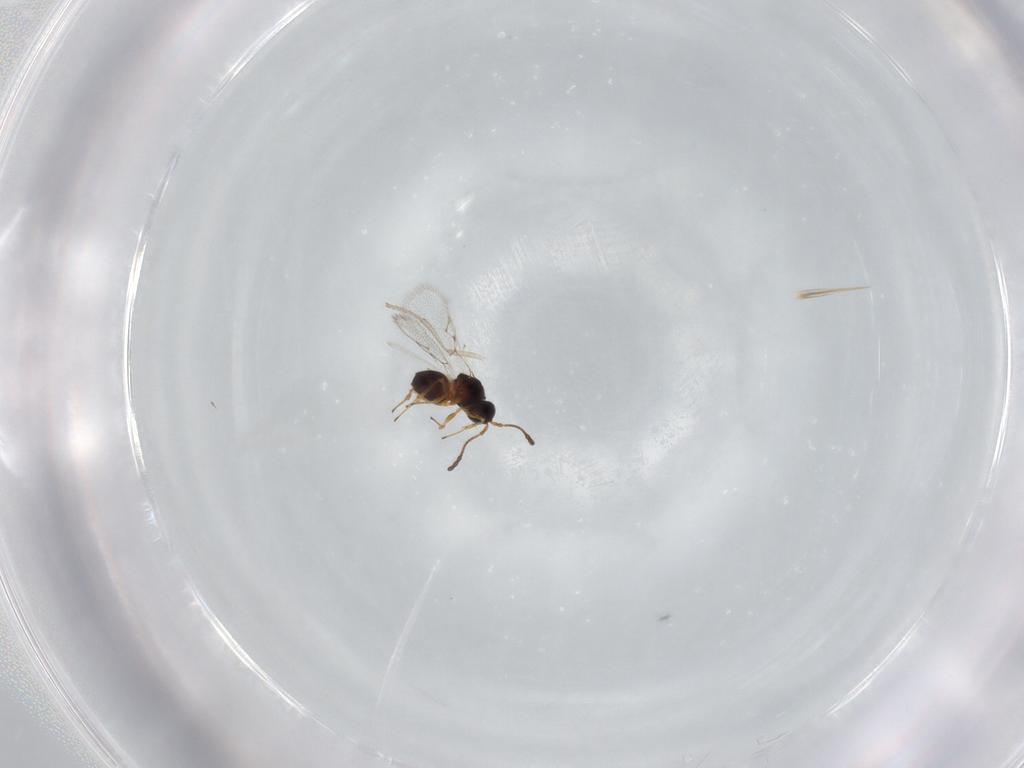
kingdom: Animalia
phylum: Arthropoda
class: Insecta
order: Hymenoptera
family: Figitidae
